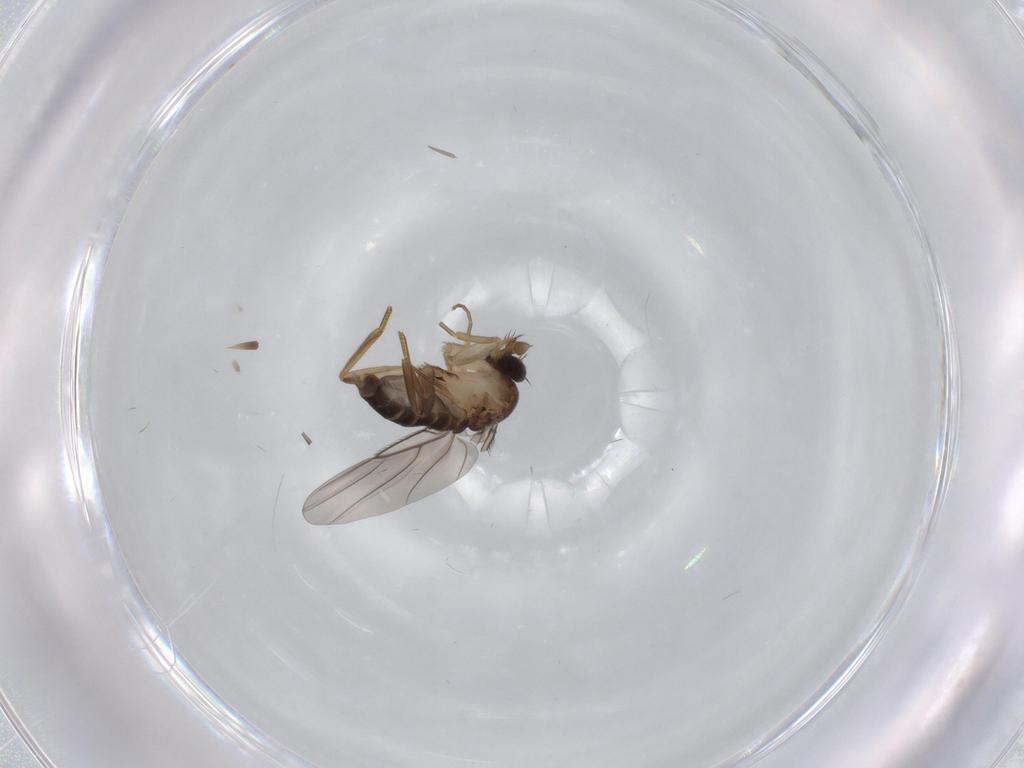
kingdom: Animalia
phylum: Arthropoda
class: Insecta
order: Diptera
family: Phoridae
